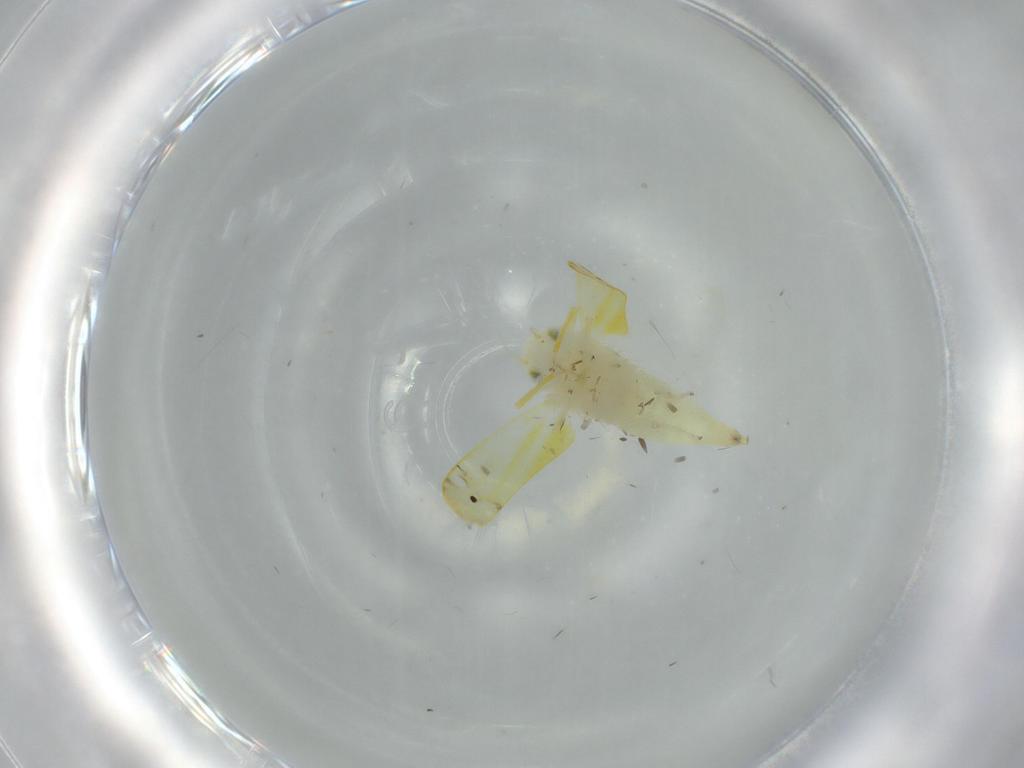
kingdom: Animalia
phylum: Arthropoda
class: Insecta
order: Hemiptera
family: Cicadellidae
